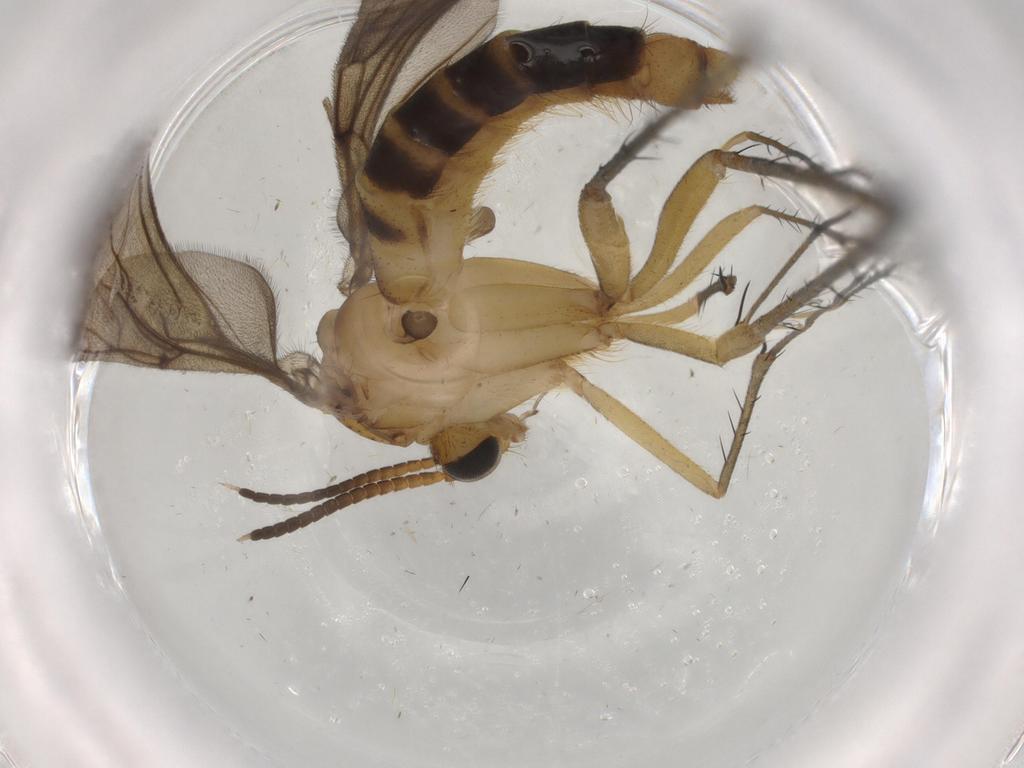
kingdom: Animalia
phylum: Arthropoda
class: Insecta
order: Diptera
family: Ditomyiidae
